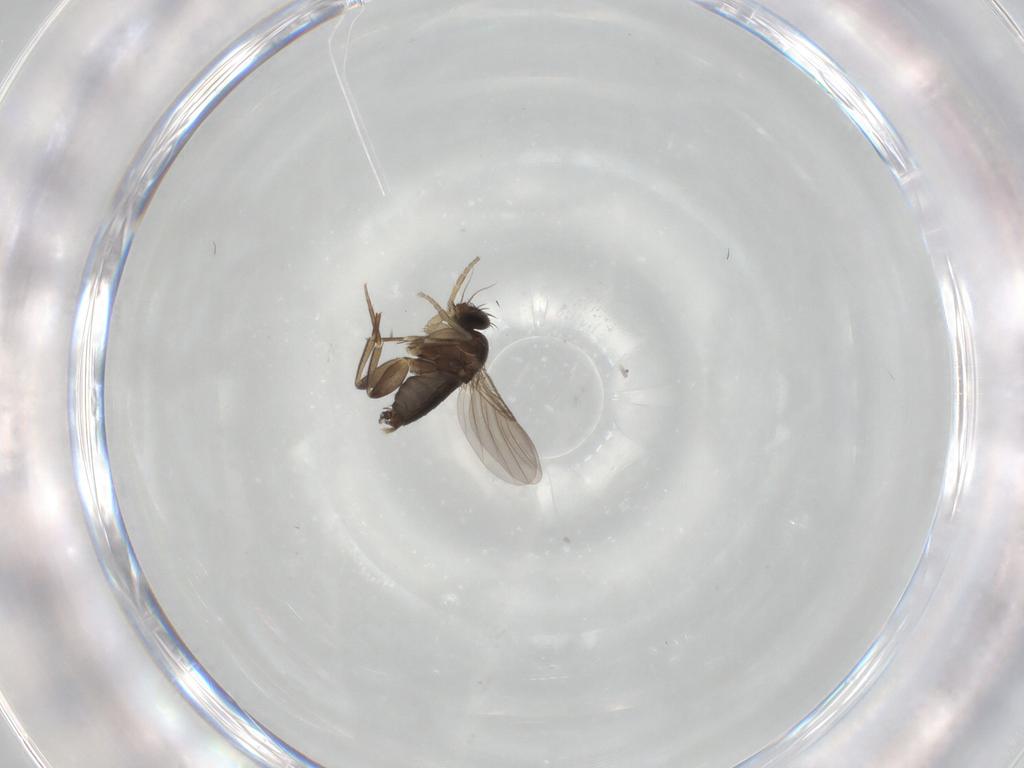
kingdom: Animalia
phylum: Arthropoda
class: Insecta
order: Diptera
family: Phoridae
